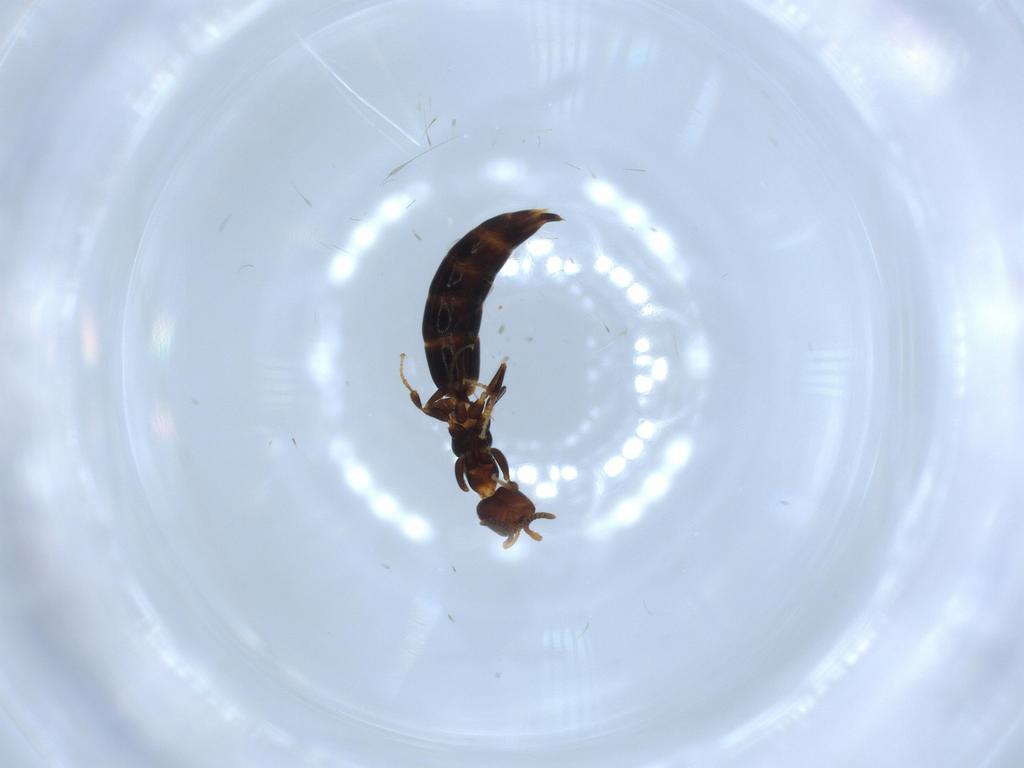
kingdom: Animalia
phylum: Arthropoda
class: Insecta
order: Hymenoptera
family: Bethylidae
